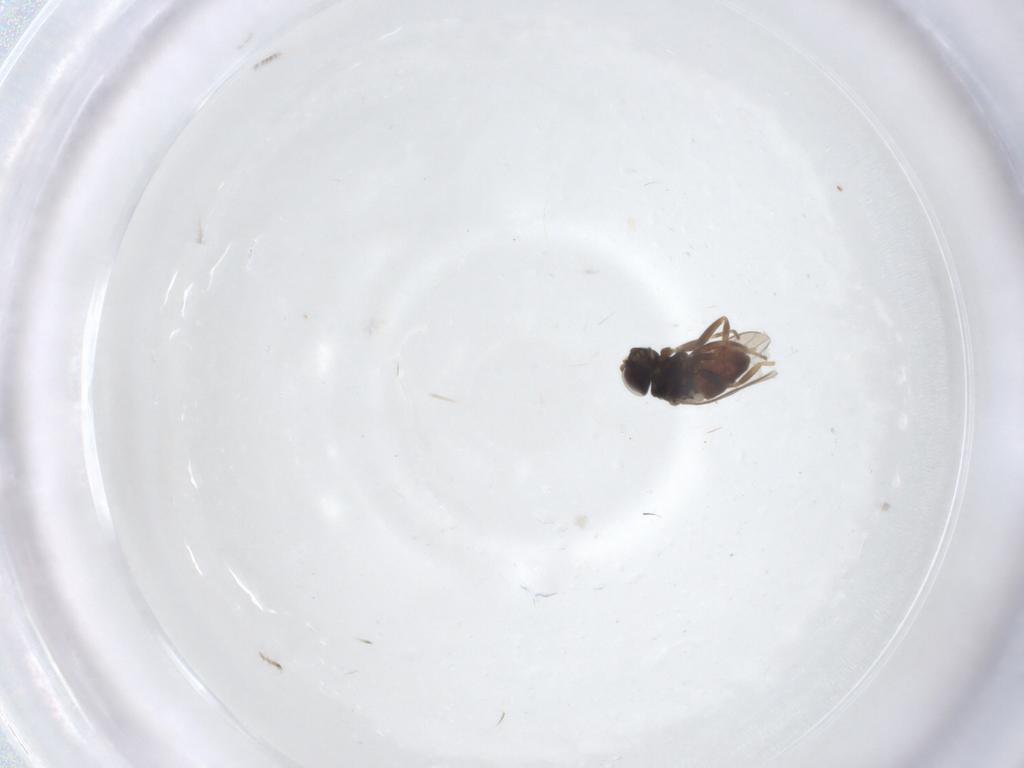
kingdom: Animalia
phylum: Arthropoda
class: Insecta
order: Diptera
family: Chloropidae
